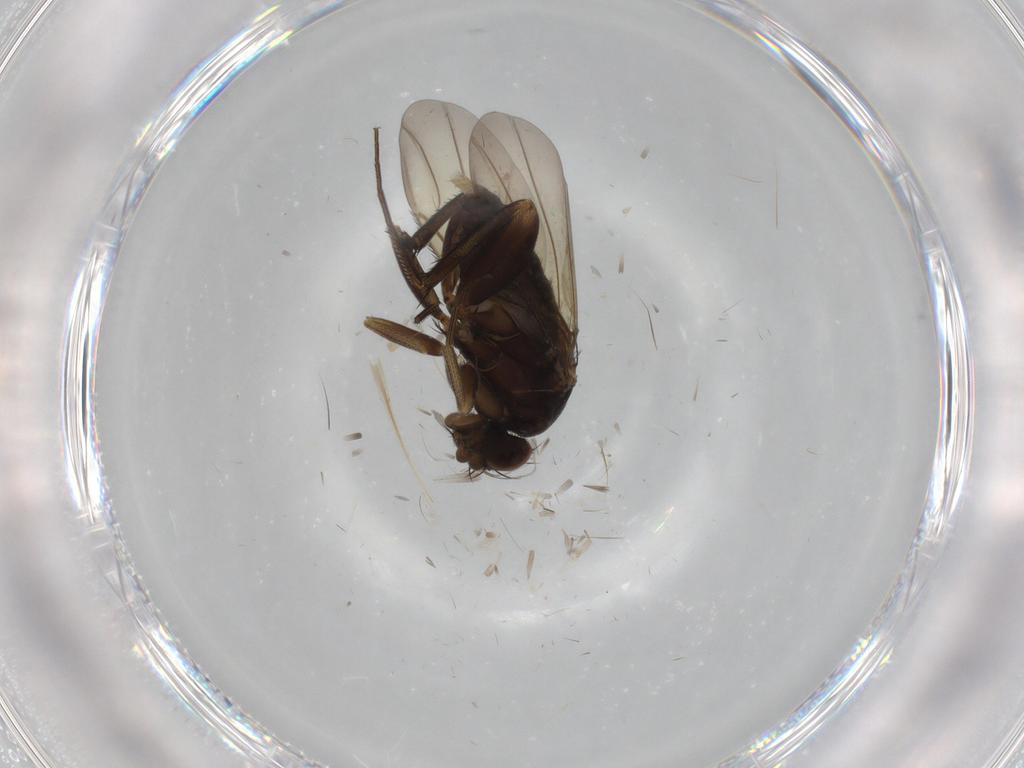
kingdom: Animalia
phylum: Arthropoda
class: Insecta
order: Diptera
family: Phoridae
